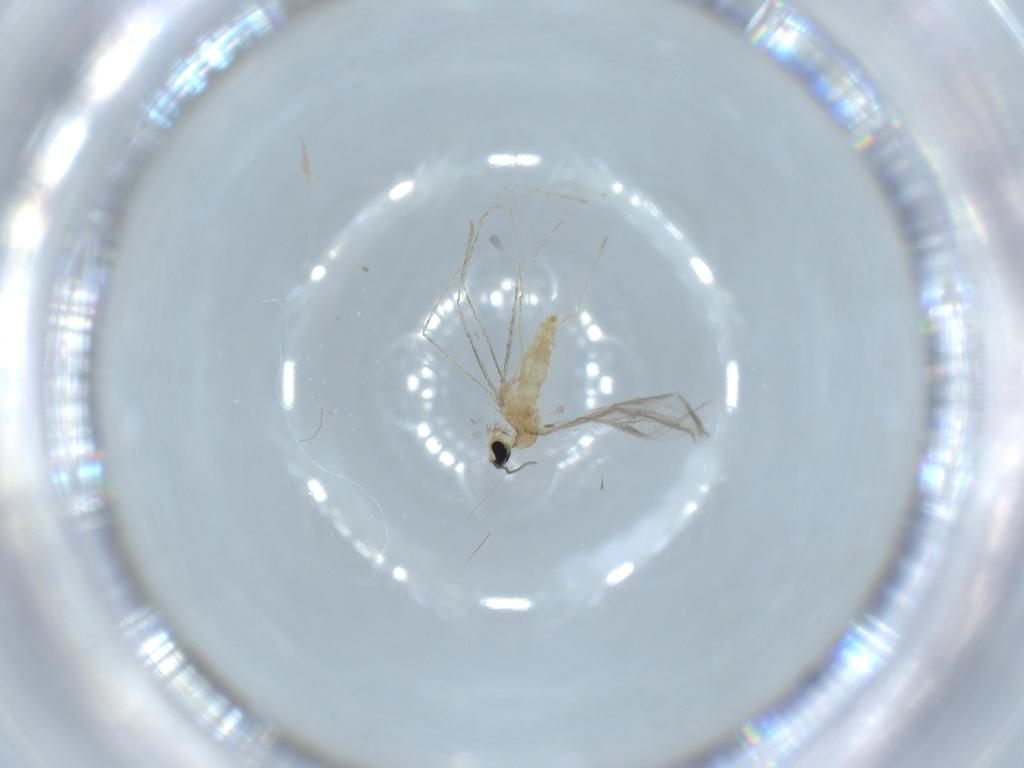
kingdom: Animalia
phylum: Arthropoda
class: Insecta
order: Diptera
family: Cecidomyiidae
